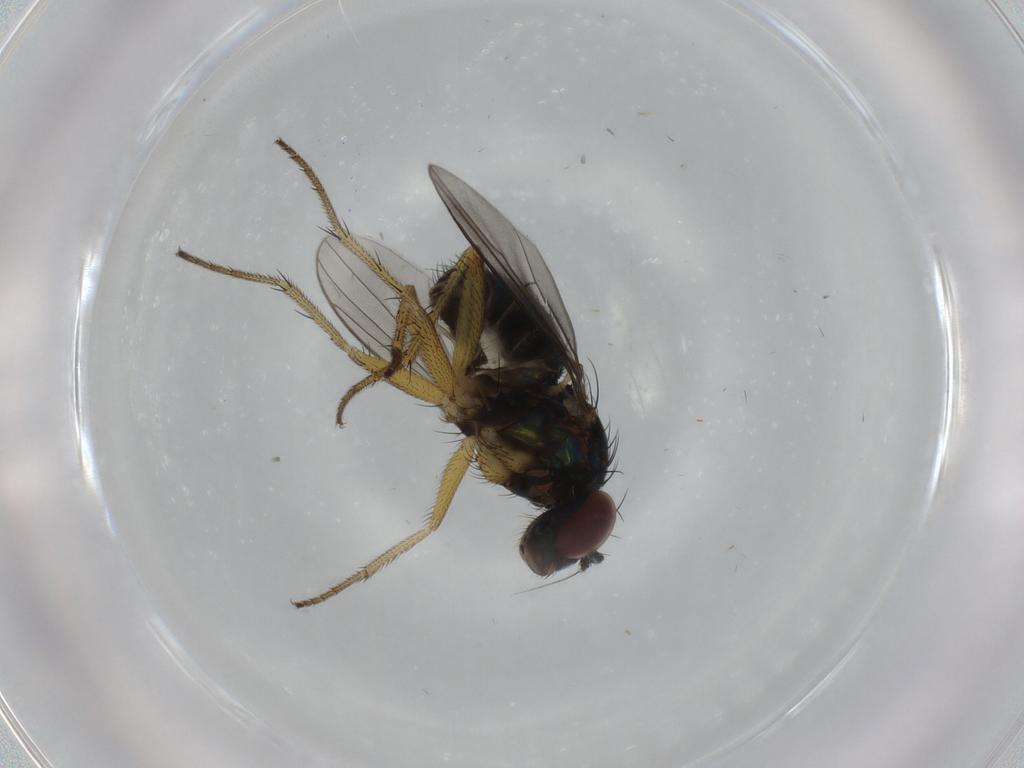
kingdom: Animalia
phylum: Arthropoda
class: Insecta
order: Diptera
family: Dolichopodidae
